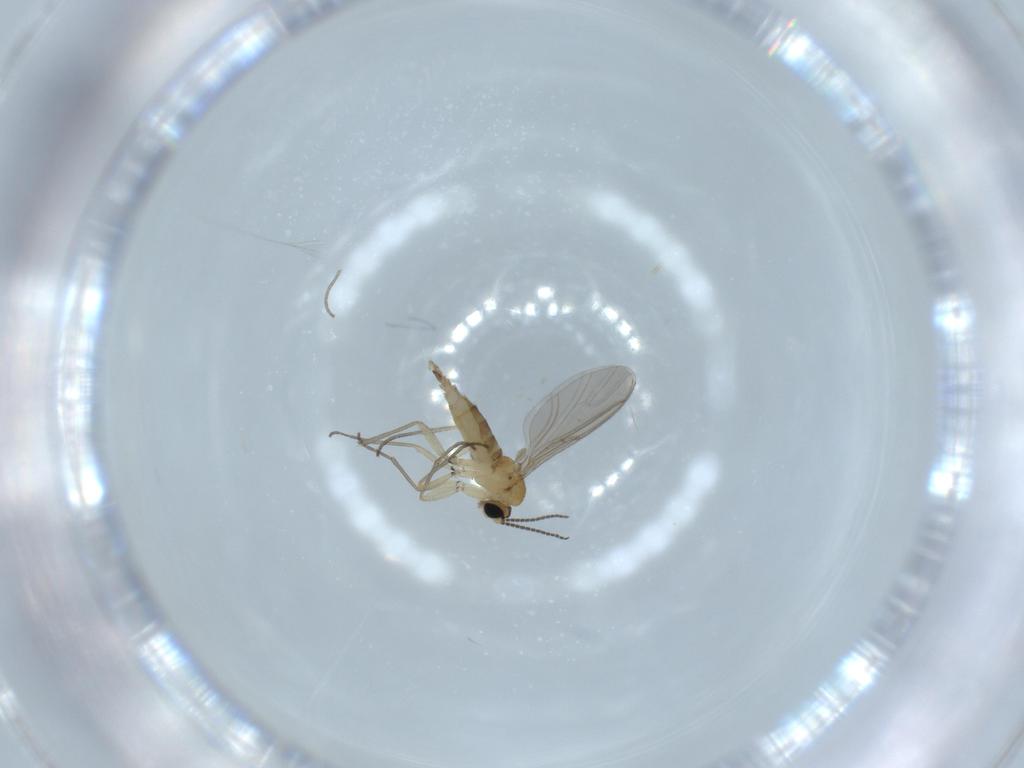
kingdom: Animalia
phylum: Arthropoda
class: Insecta
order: Diptera
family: Sciaridae
